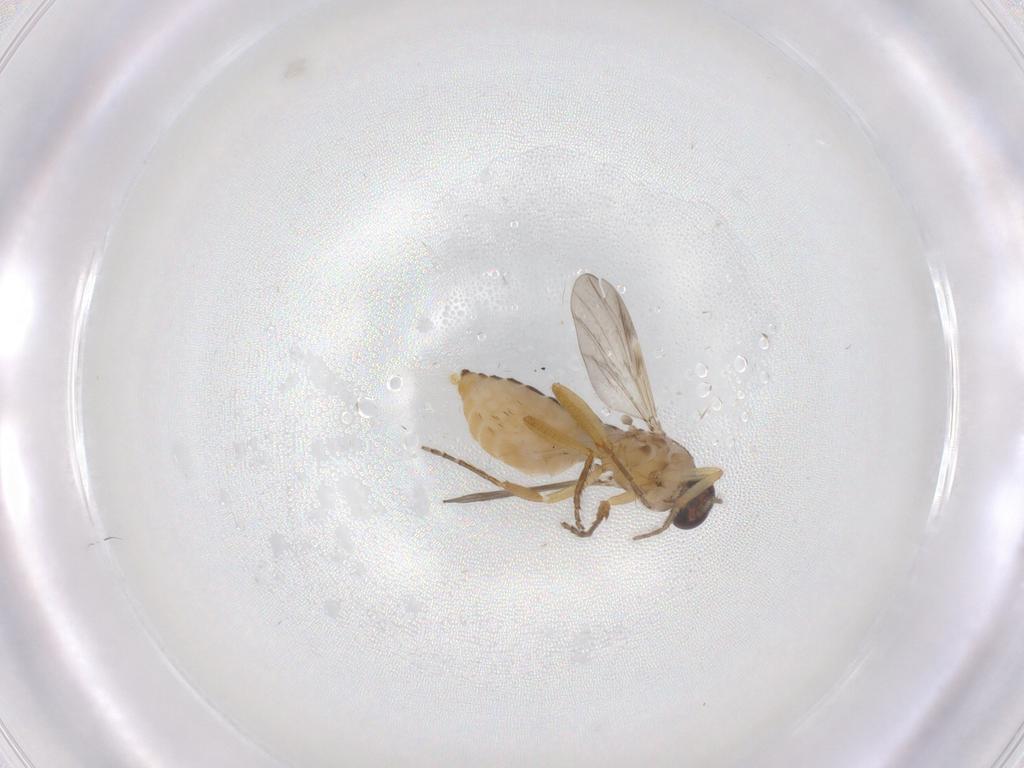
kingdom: Animalia
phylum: Arthropoda
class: Insecta
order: Diptera
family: Ceratopogonidae
